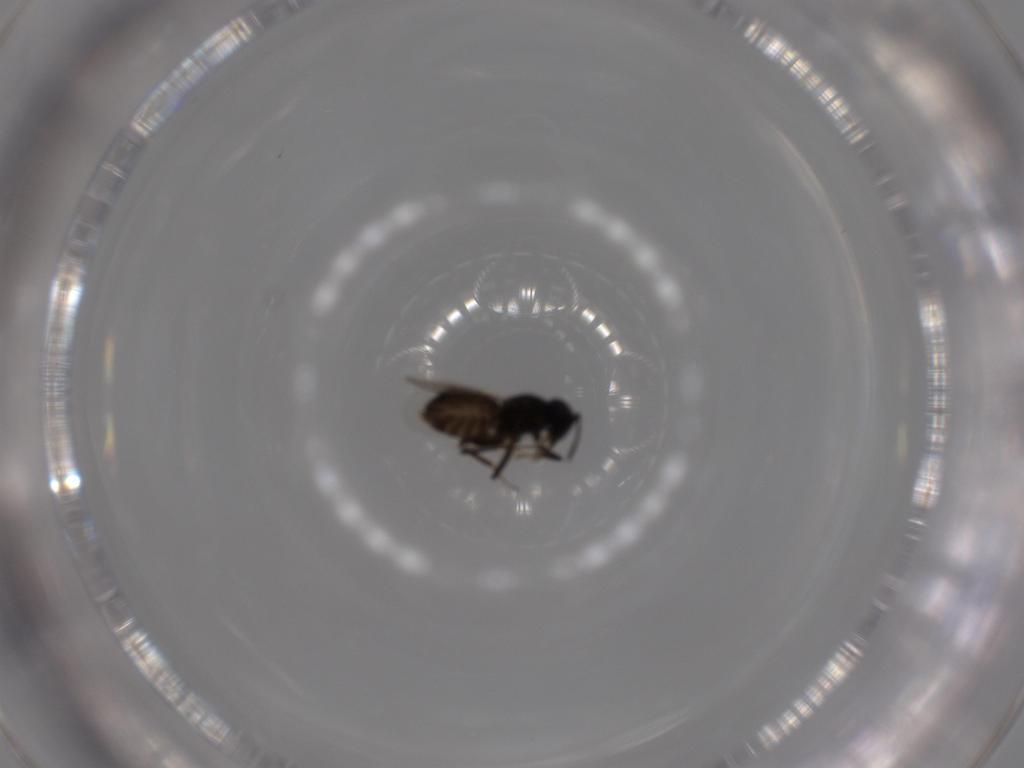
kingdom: Animalia
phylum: Arthropoda
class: Insecta
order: Hymenoptera
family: Encyrtidae
